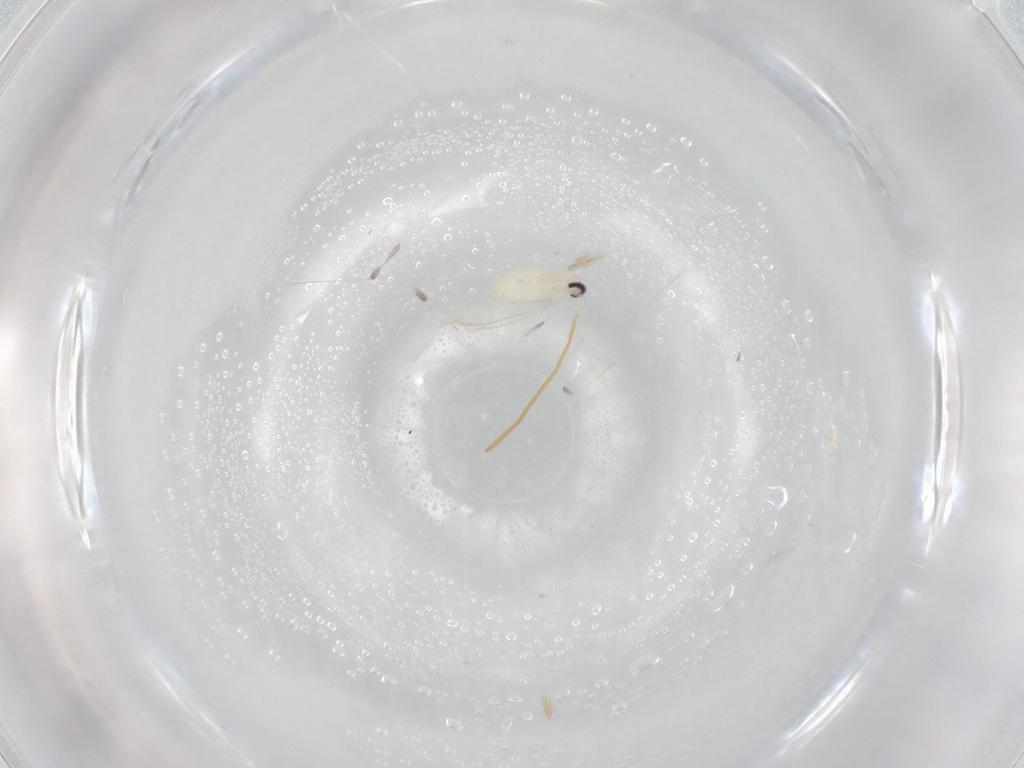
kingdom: Animalia
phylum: Arthropoda
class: Insecta
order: Diptera
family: Cecidomyiidae
